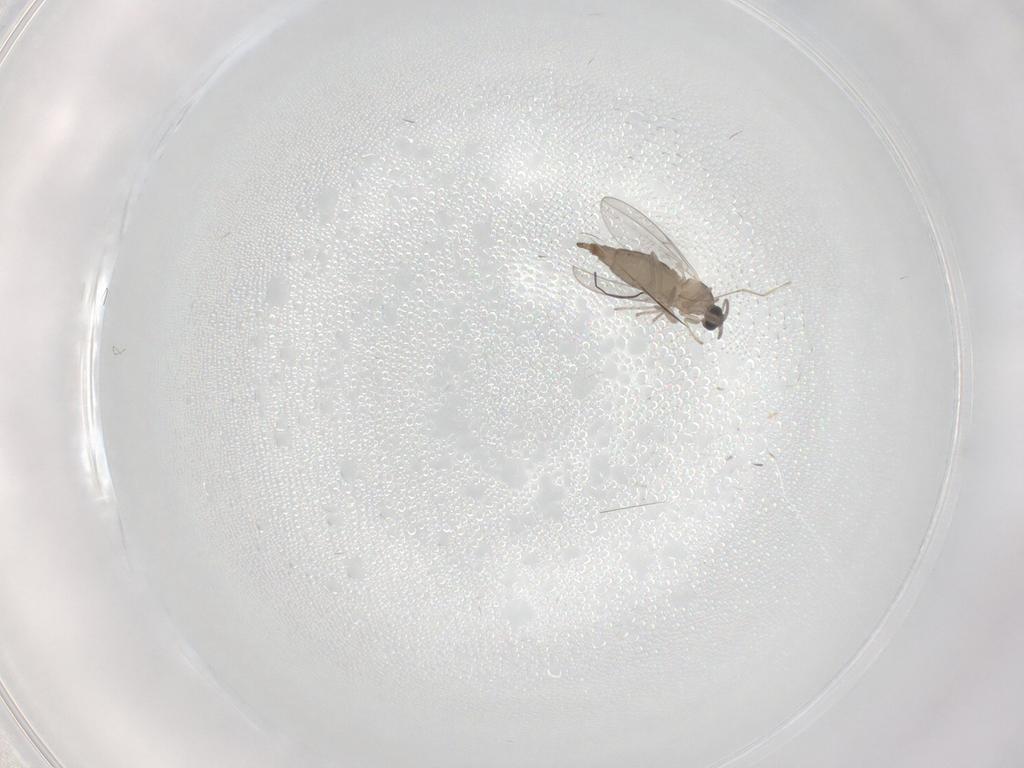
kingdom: Animalia
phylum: Arthropoda
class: Insecta
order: Diptera
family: Cecidomyiidae
